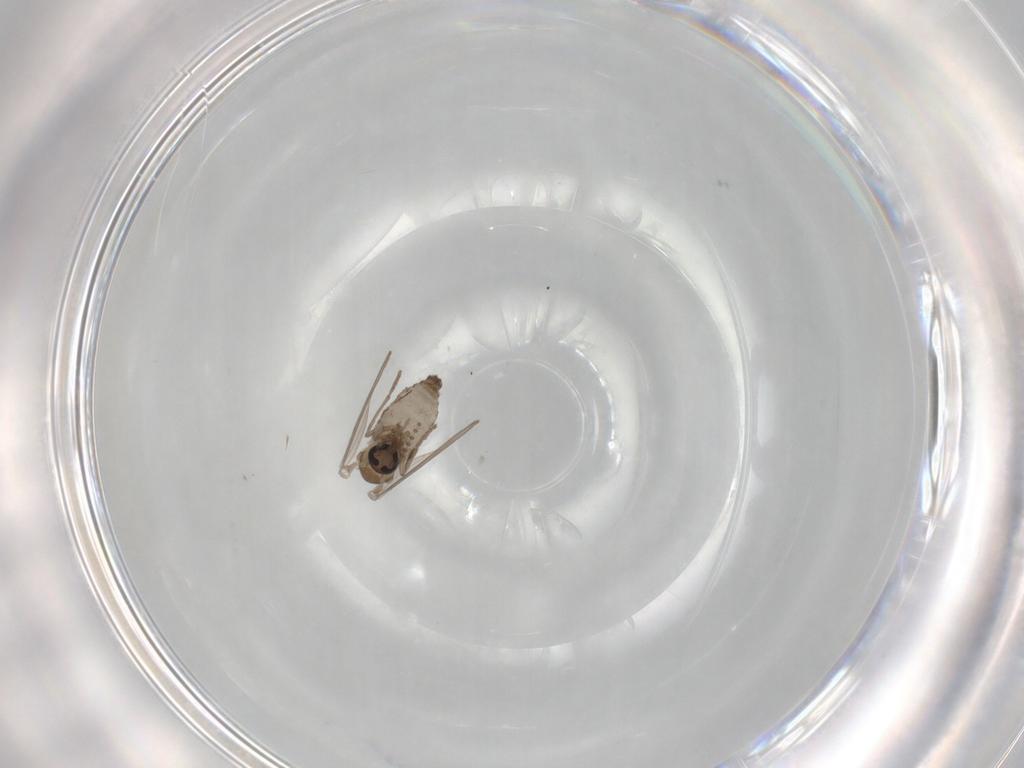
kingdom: Animalia
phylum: Arthropoda
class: Insecta
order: Diptera
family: Psychodidae
